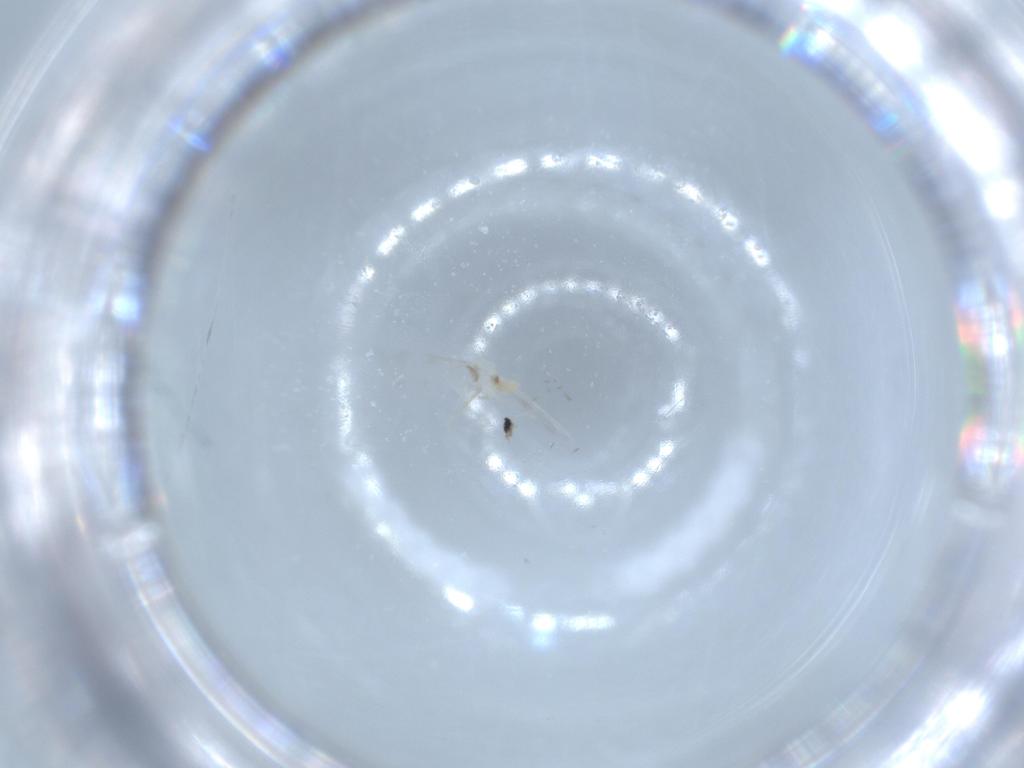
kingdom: Animalia
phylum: Arthropoda
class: Insecta
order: Diptera
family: Cecidomyiidae
